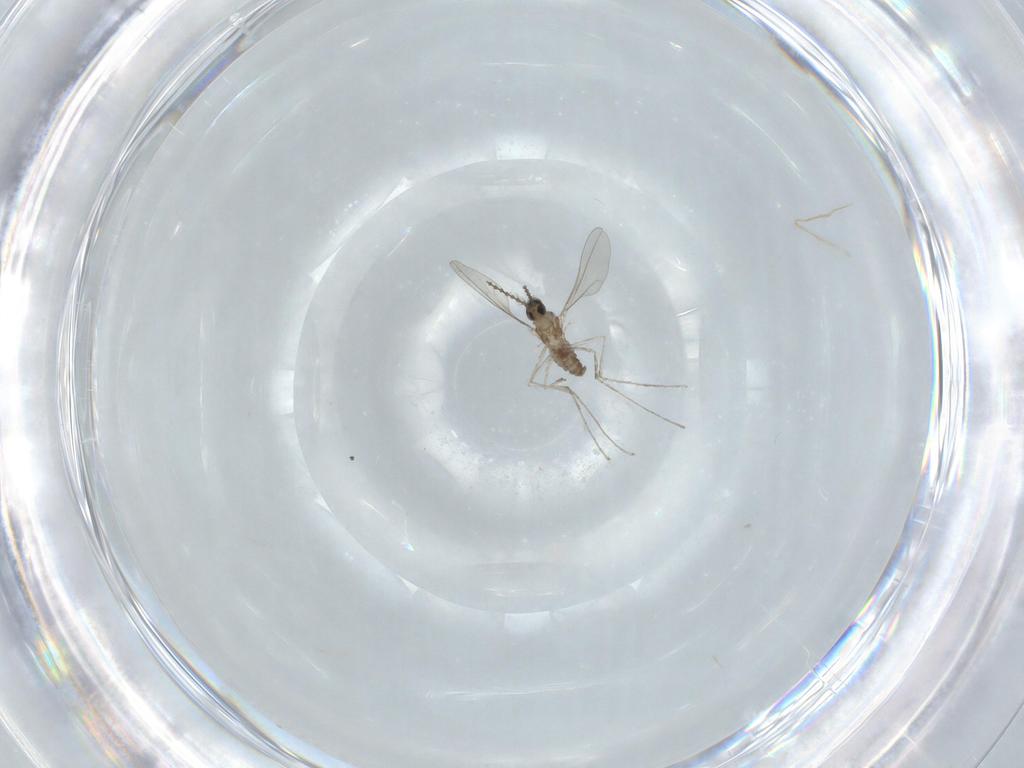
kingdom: Animalia
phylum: Arthropoda
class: Insecta
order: Diptera
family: Cecidomyiidae
